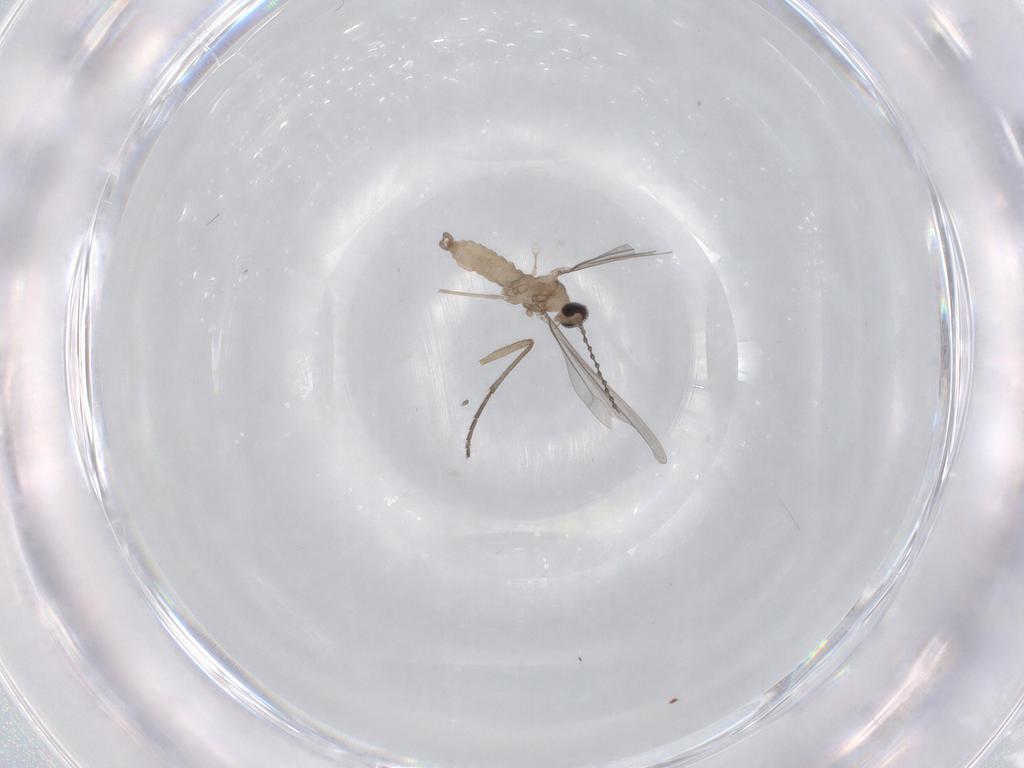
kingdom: Animalia
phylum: Arthropoda
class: Insecta
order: Diptera
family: Cecidomyiidae
